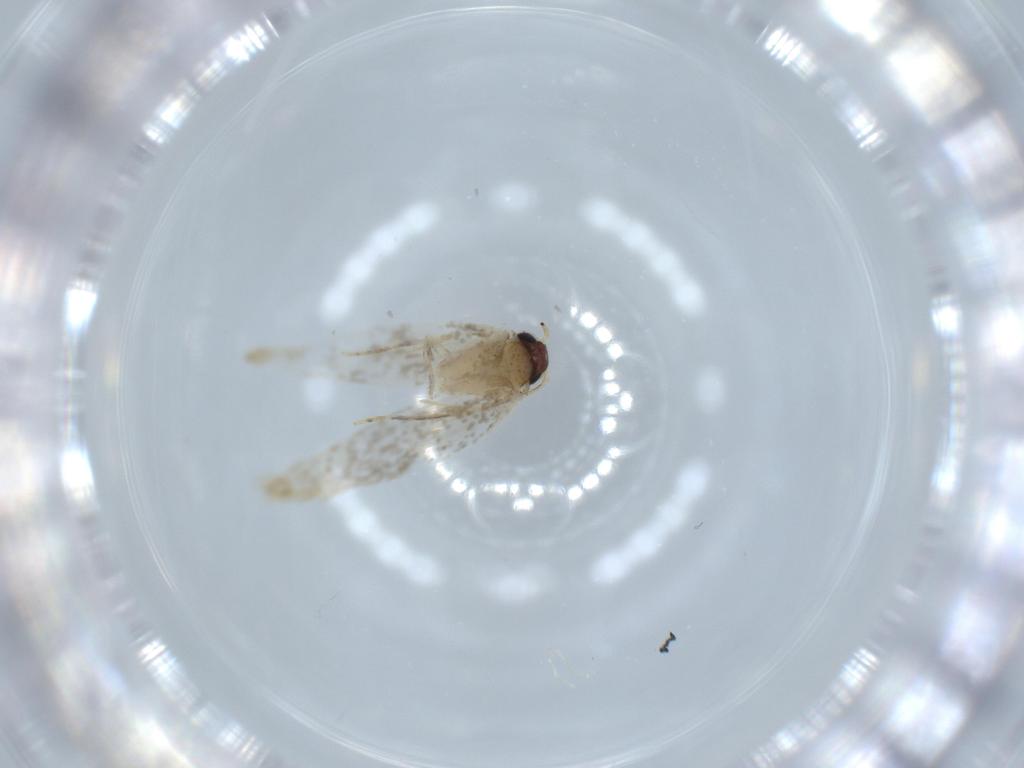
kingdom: Animalia
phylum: Arthropoda
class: Insecta
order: Lepidoptera
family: Tineidae
